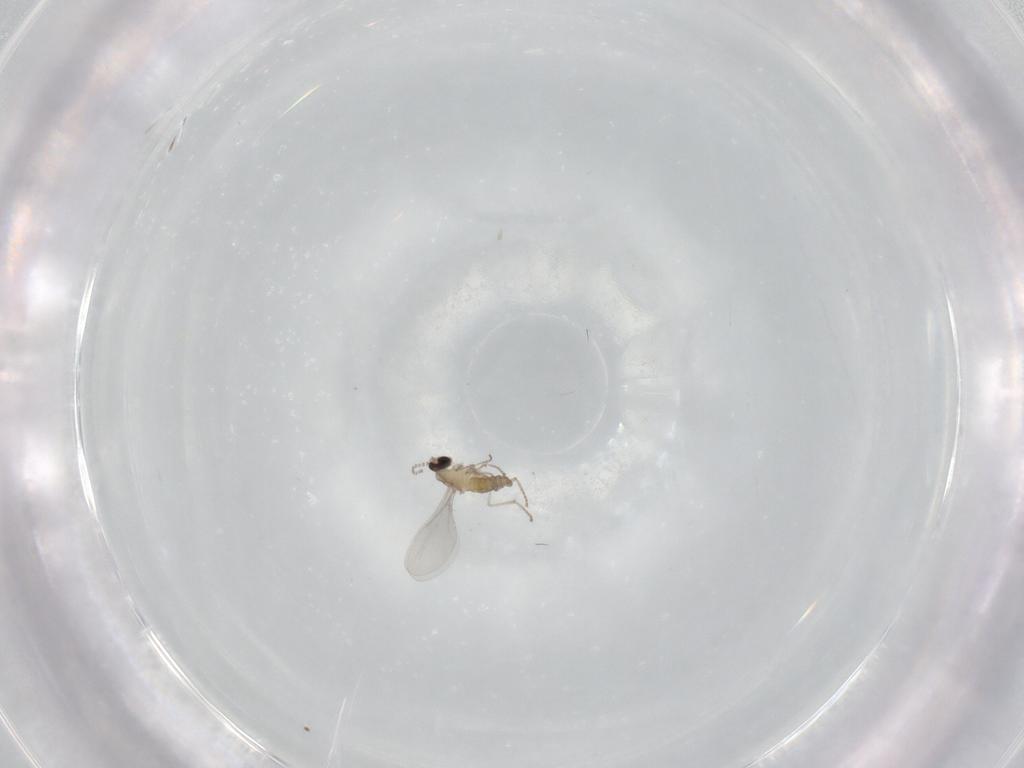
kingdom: Animalia
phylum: Arthropoda
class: Insecta
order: Diptera
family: Cecidomyiidae
